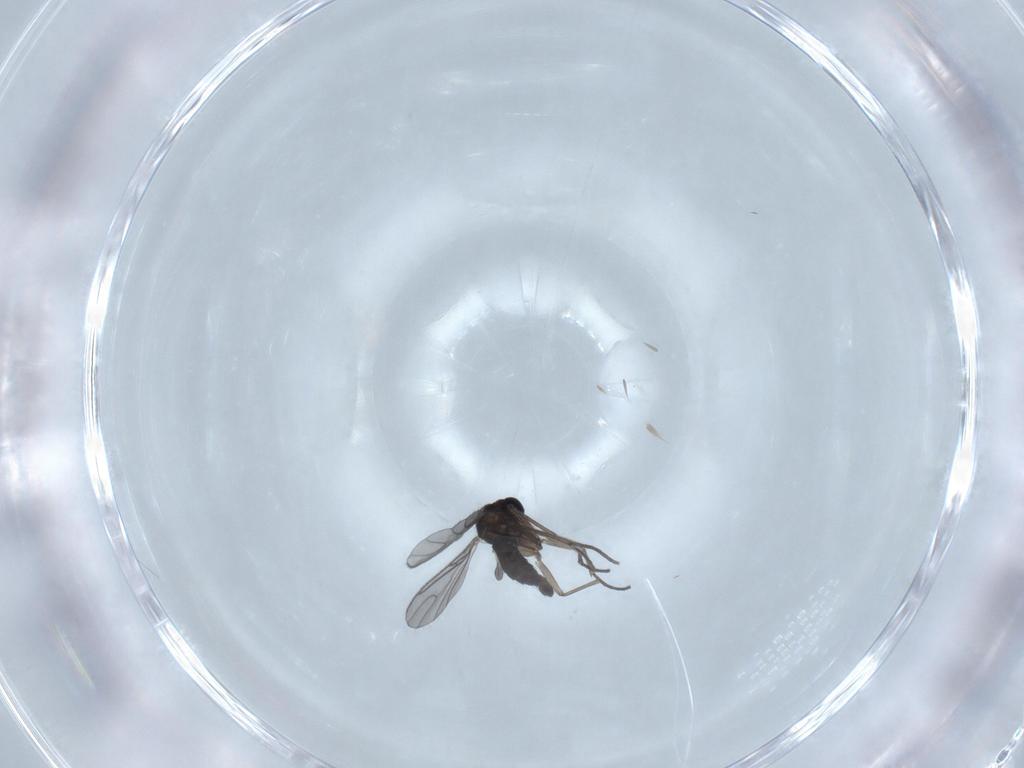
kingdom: Animalia
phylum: Arthropoda
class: Insecta
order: Diptera
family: Sciaridae
